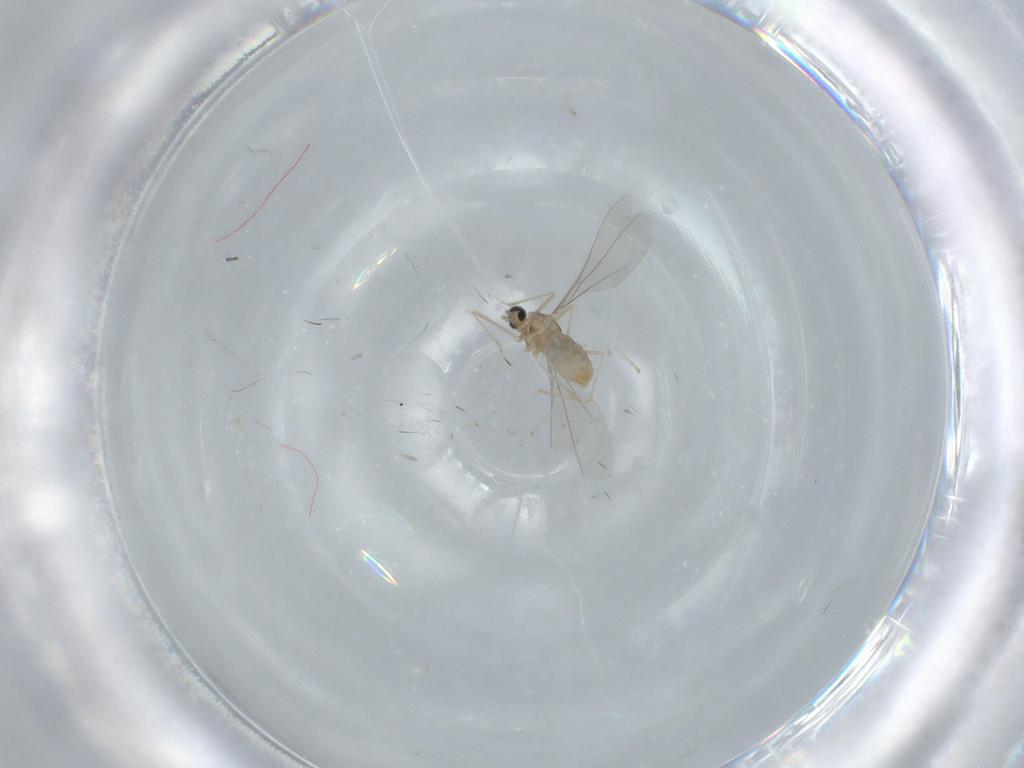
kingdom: Animalia
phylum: Arthropoda
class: Insecta
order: Diptera
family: Sciaridae
